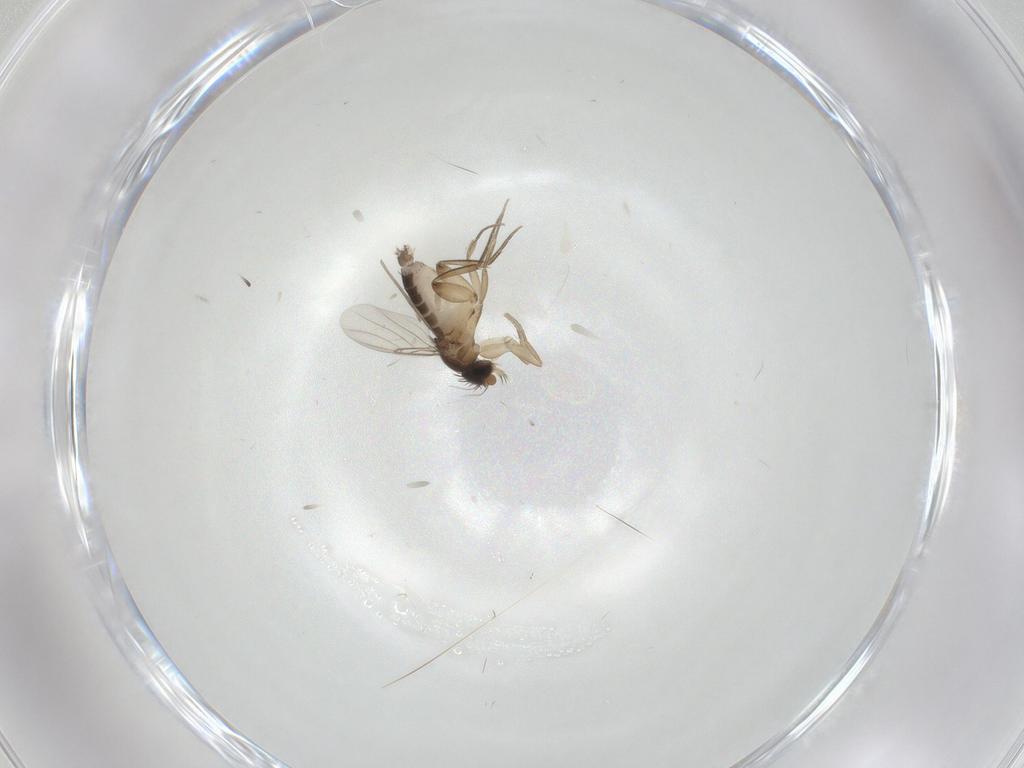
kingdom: Animalia
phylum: Arthropoda
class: Insecta
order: Diptera
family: Phoridae
